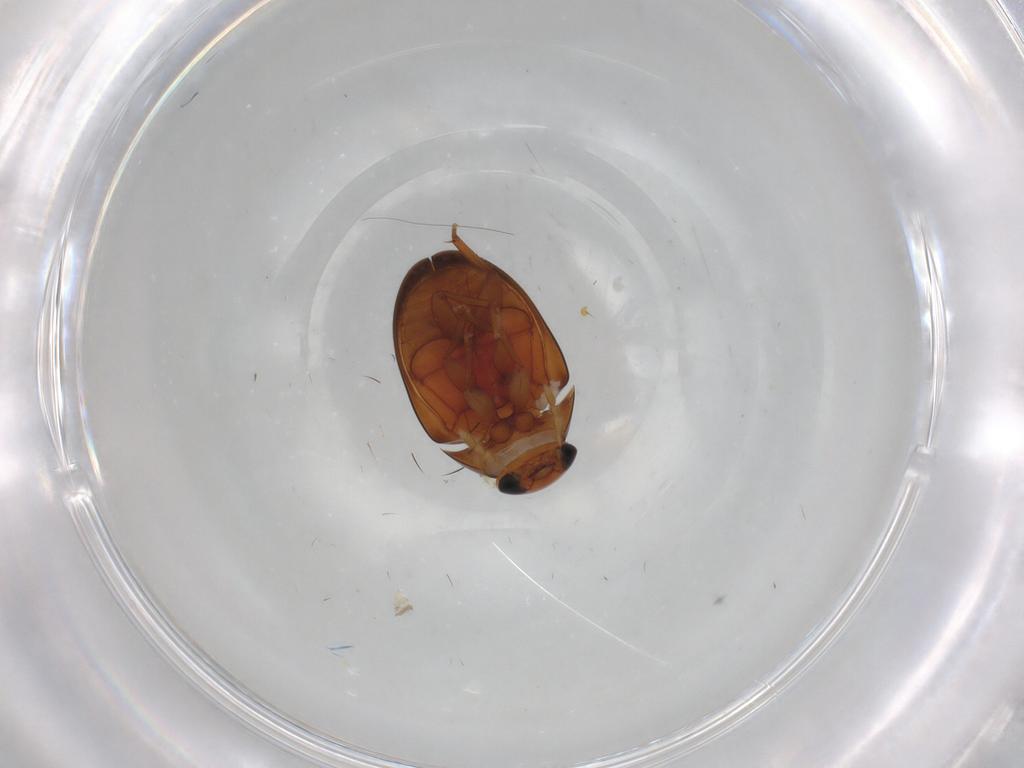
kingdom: Animalia
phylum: Arthropoda
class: Insecta
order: Coleoptera
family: Phalacridae
